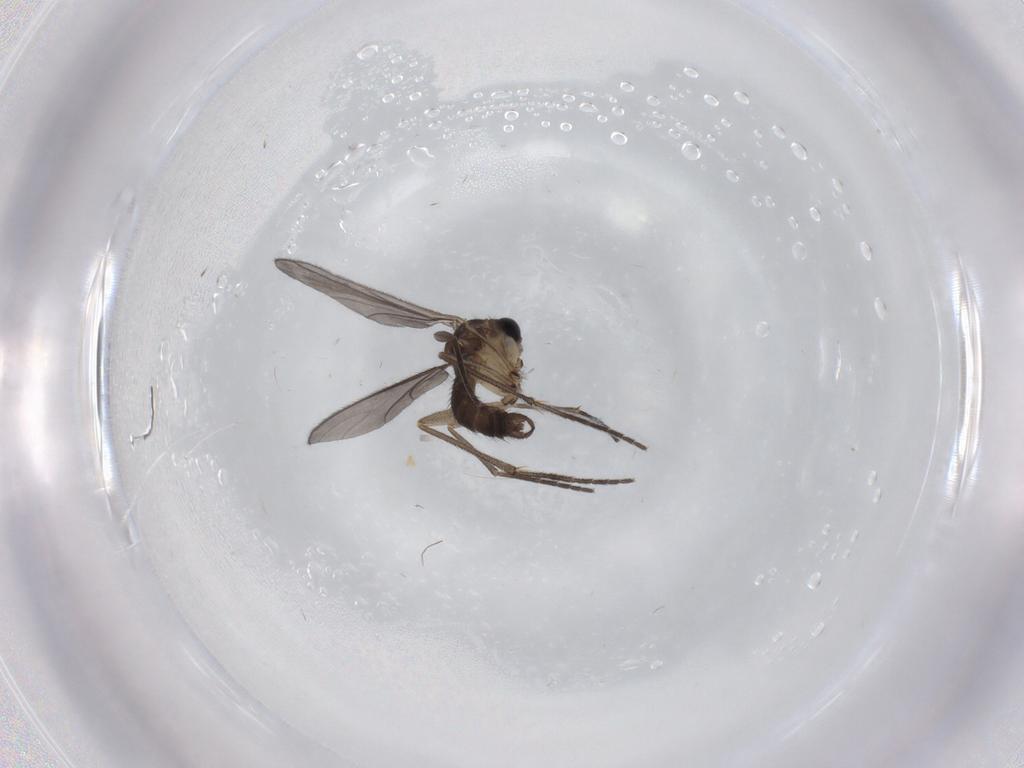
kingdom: Animalia
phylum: Arthropoda
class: Insecta
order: Diptera
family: Sciaridae
